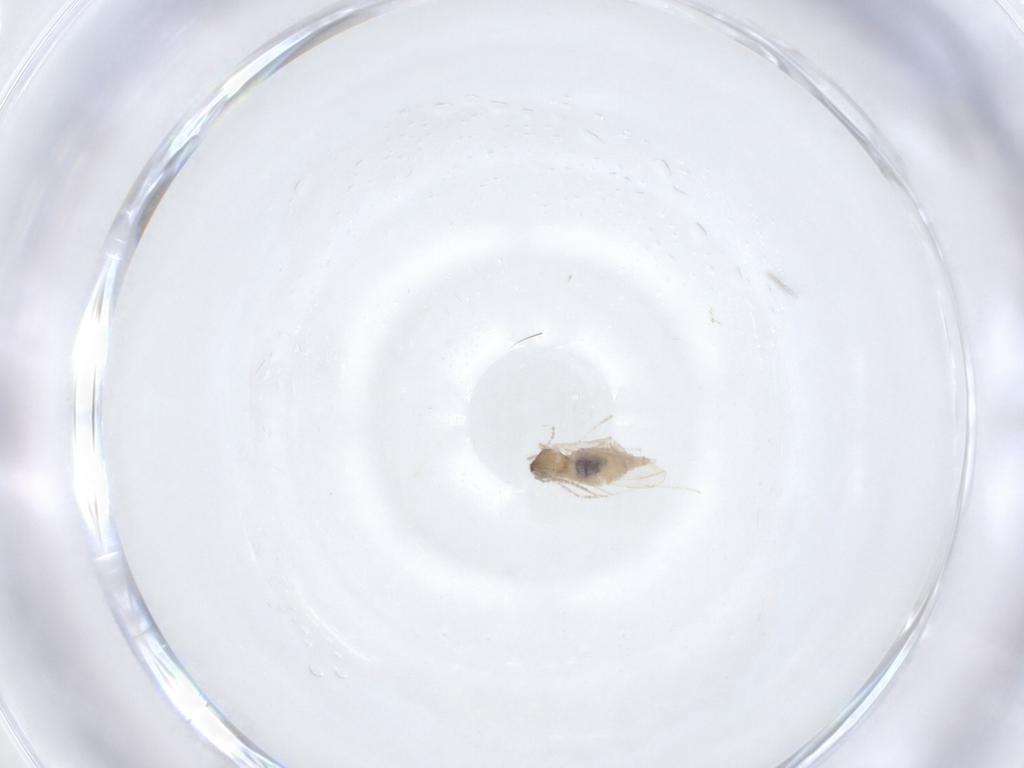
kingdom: Animalia
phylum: Arthropoda
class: Insecta
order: Diptera
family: Cecidomyiidae
